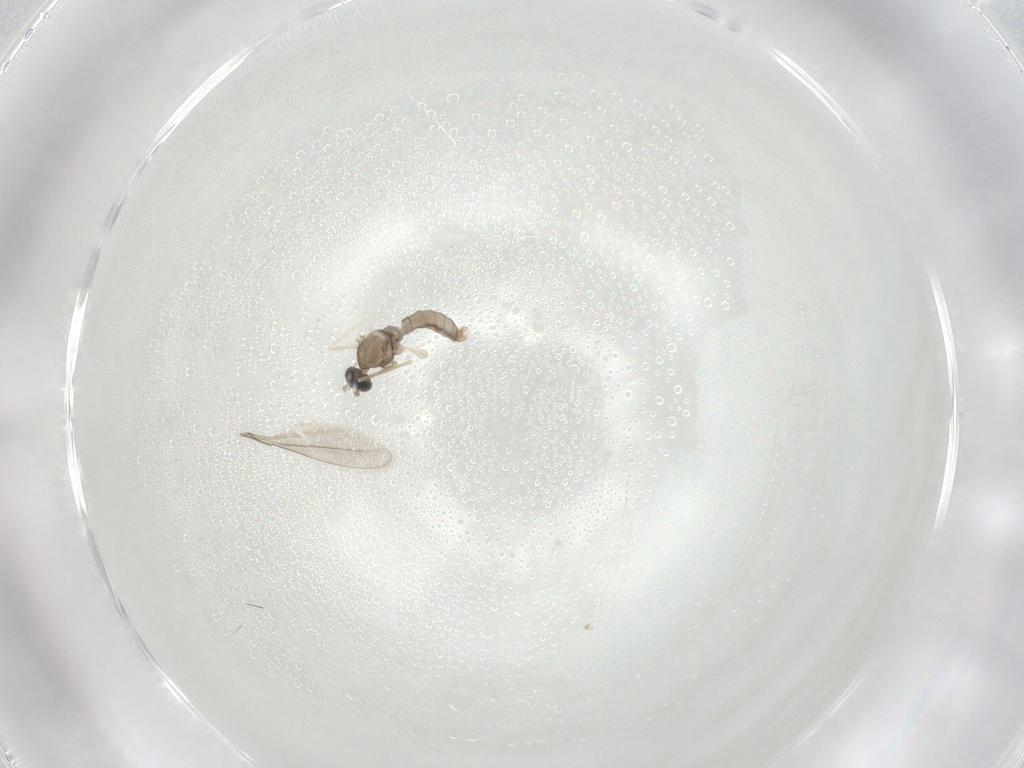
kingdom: Animalia
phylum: Arthropoda
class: Insecta
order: Diptera
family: Cecidomyiidae
